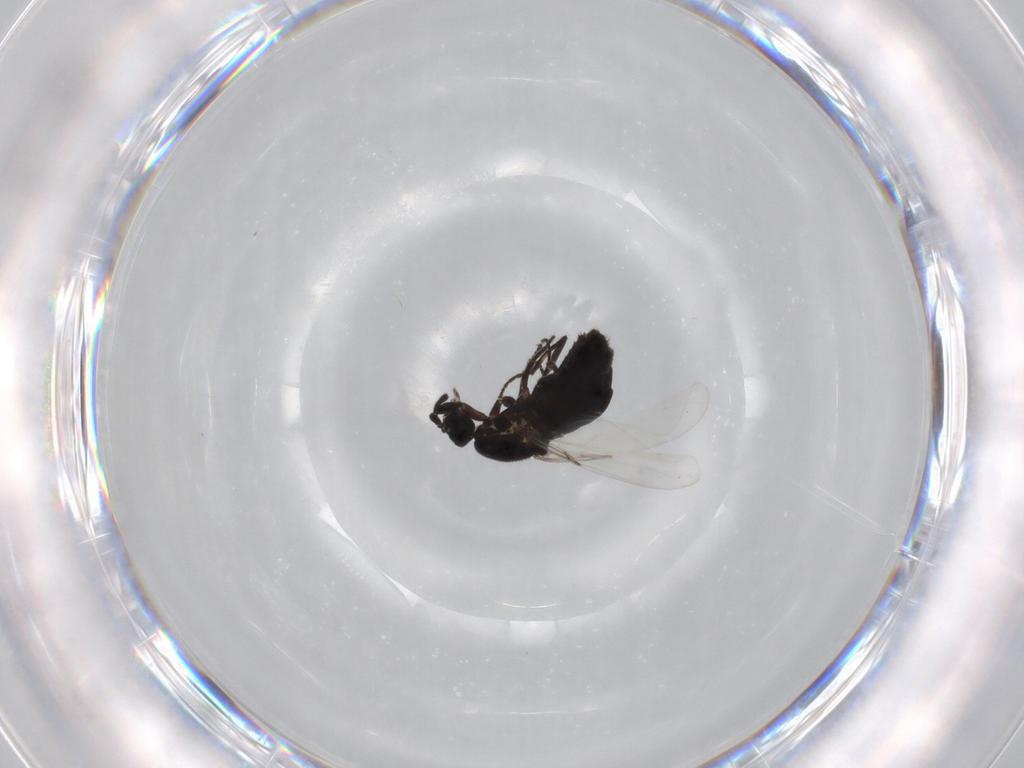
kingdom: Animalia
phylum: Arthropoda
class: Insecta
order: Diptera
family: Scatopsidae
